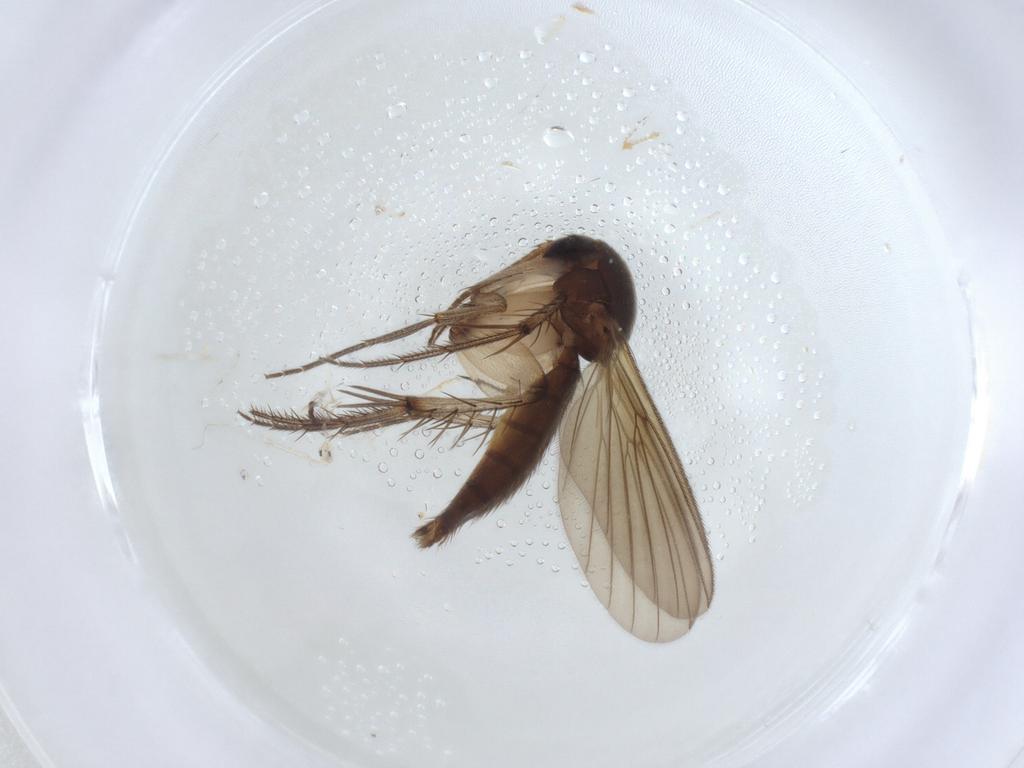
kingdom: Animalia
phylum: Arthropoda
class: Insecta
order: Diptera
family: Mycetophilidae
